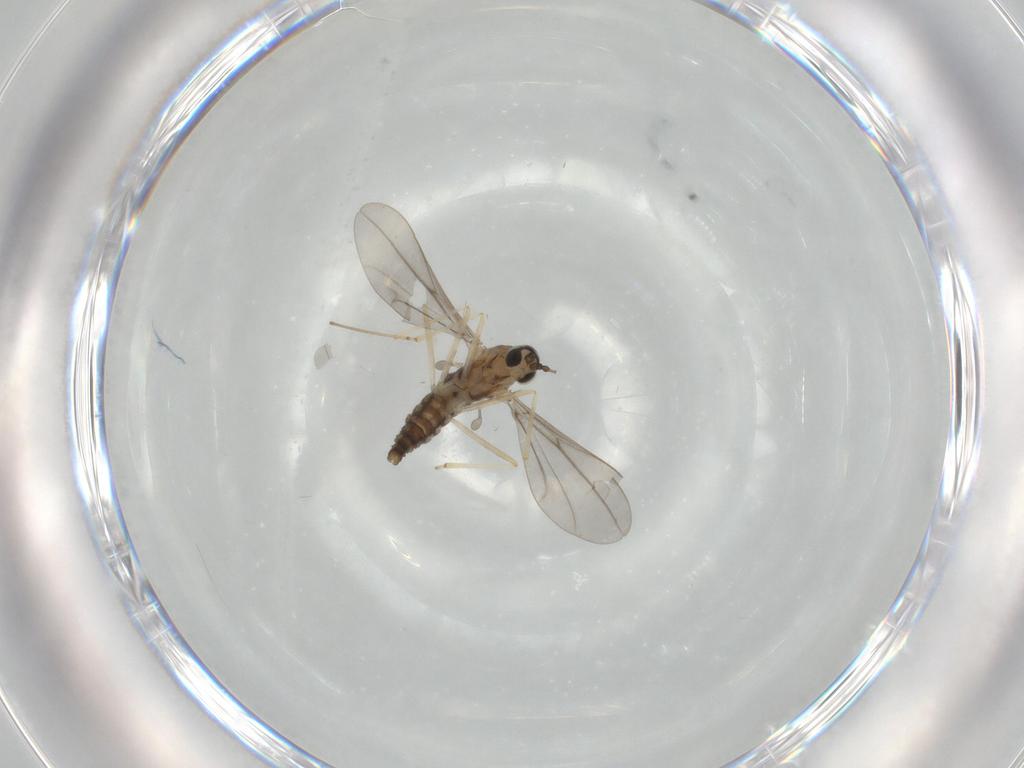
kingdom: Animalia
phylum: Arthropoda
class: Insecta
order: Diptera
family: Cecidomyiidae
